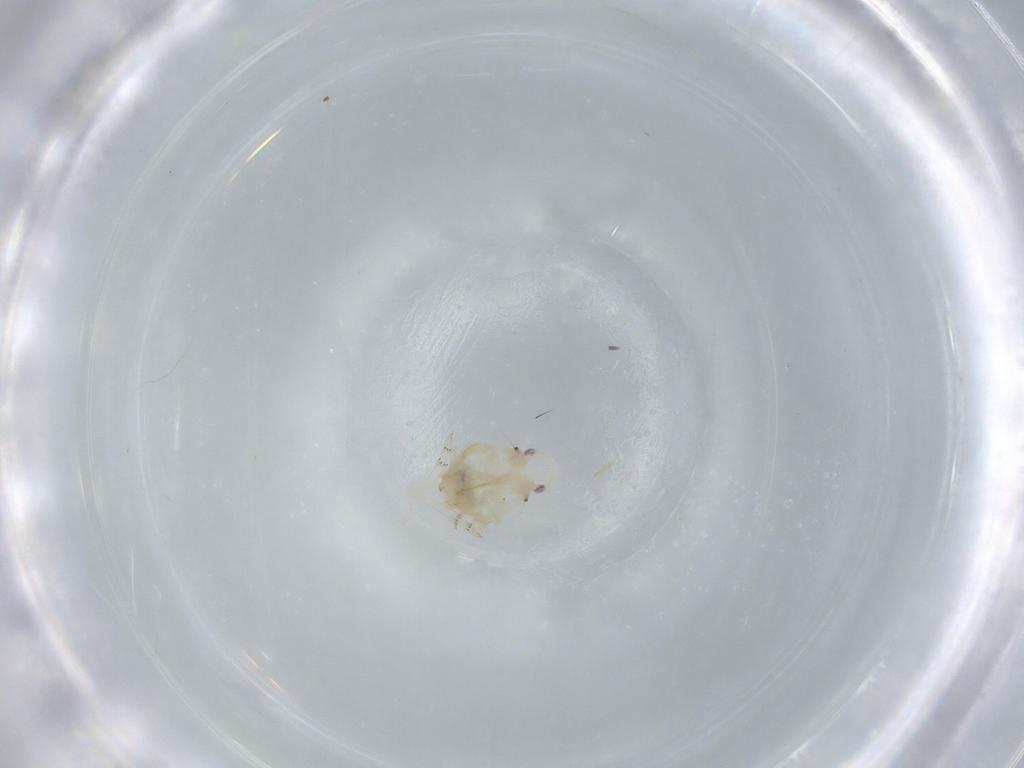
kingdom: Animalia
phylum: Arthropoda
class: Insecta
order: Hemiptera
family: Flatidae
